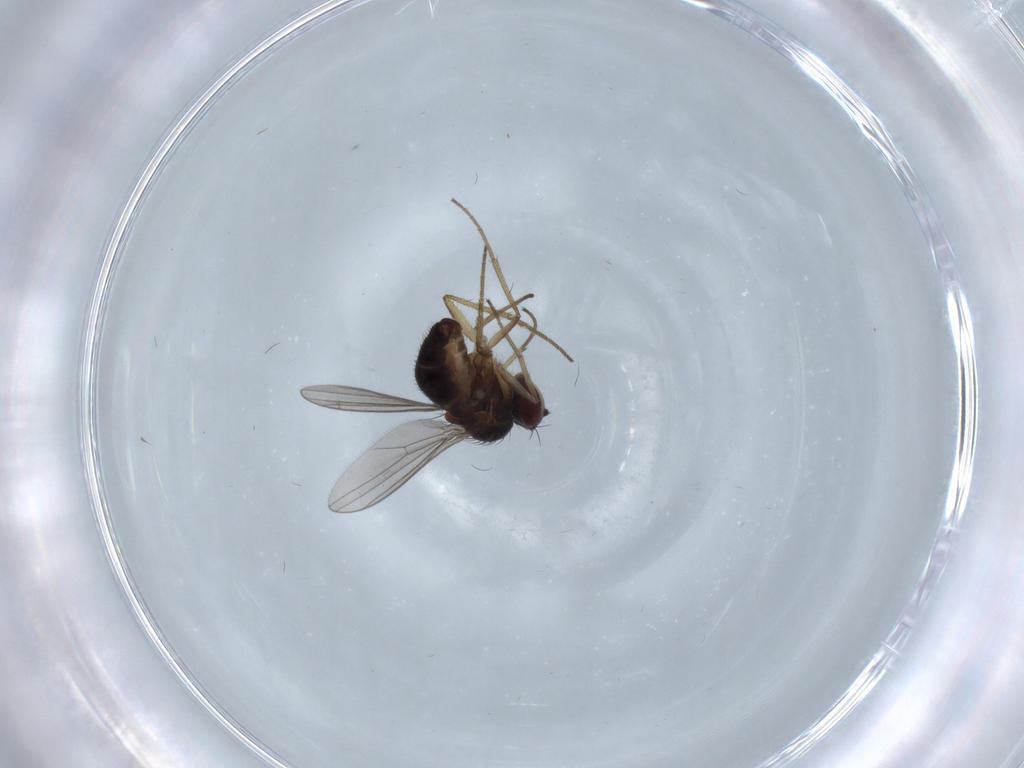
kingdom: Animalia
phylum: Arthropoda
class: Insecta
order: Diptera
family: Dolichopodidae
